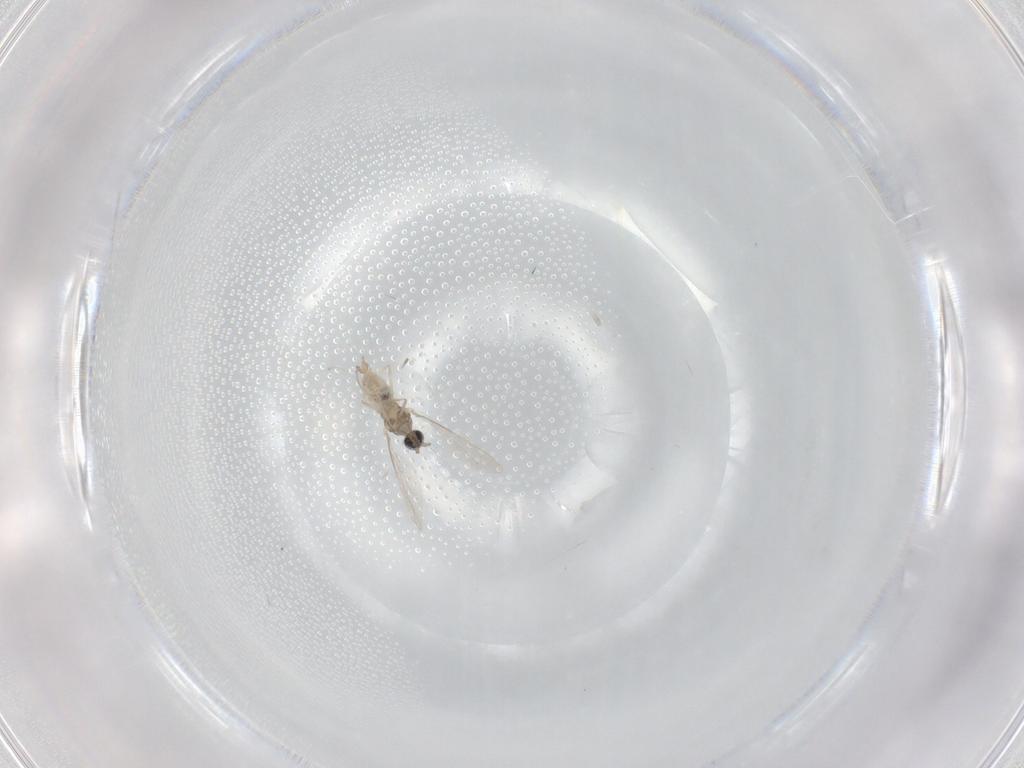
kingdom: Animalia
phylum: Arthropoda
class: Insecta
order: Diptera
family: Cecidomyiidae
